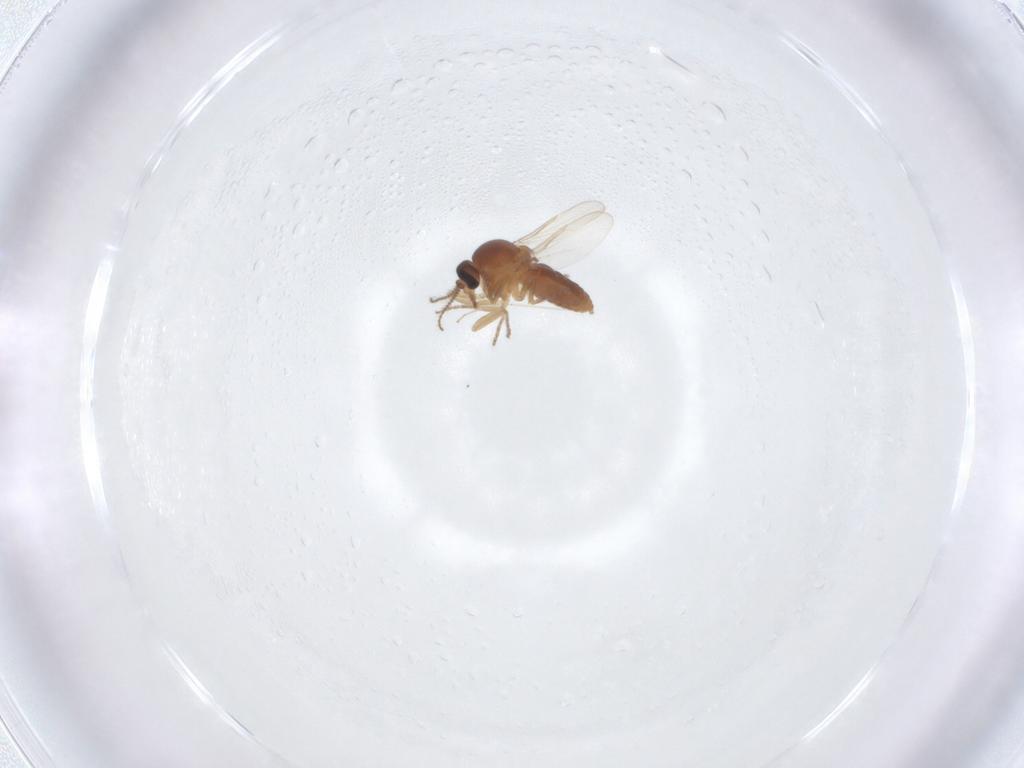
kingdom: Animalia
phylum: Arthropoda
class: Insecta
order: Diptera
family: Ceratopogonidae
